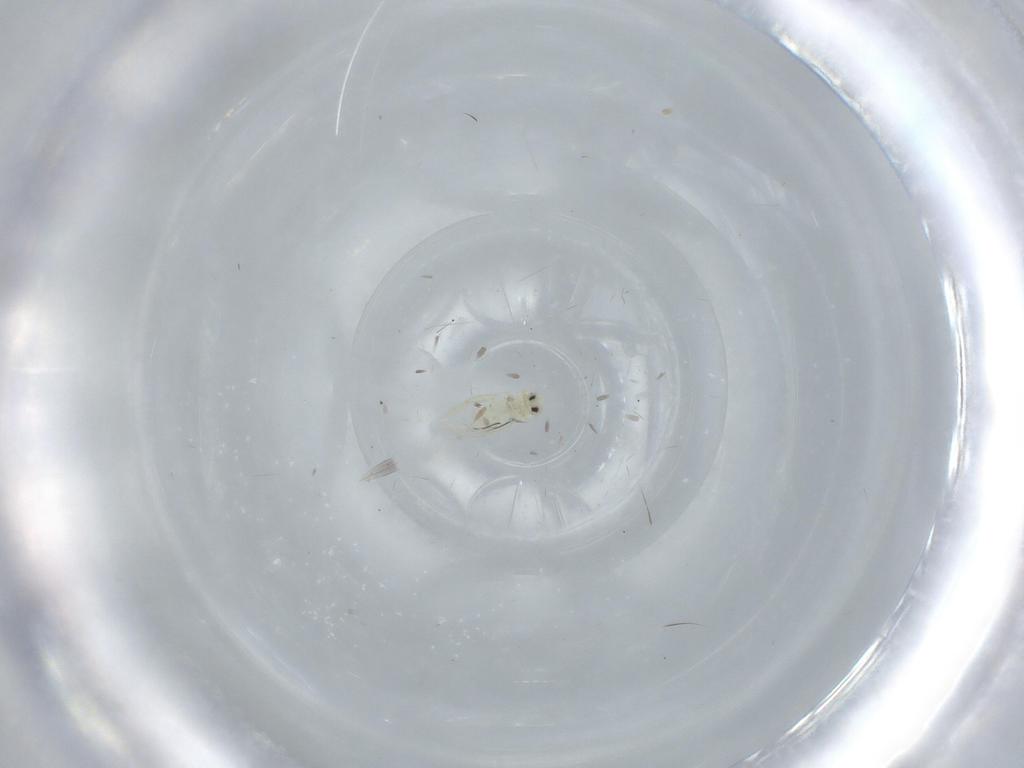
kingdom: Animalia
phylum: Arthropoda
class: Insecta
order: Hemiptera
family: Aleyrodidae
